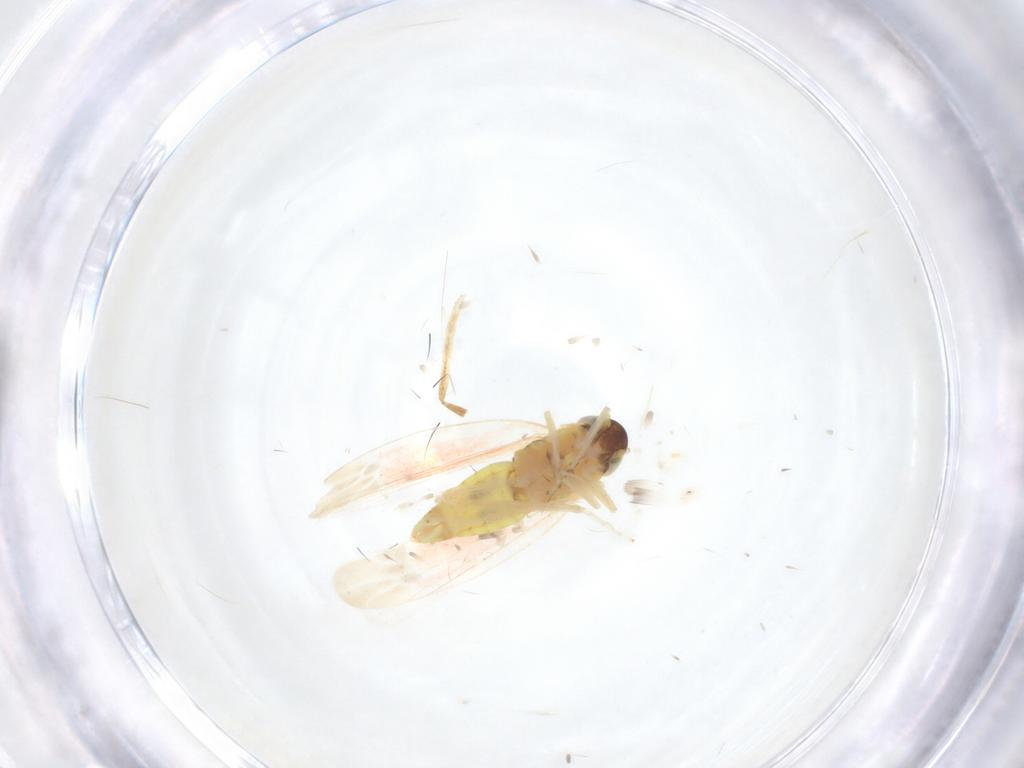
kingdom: Animalia
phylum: Arthropoda
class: Insecta
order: Hemiptera
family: Cicadellidae
